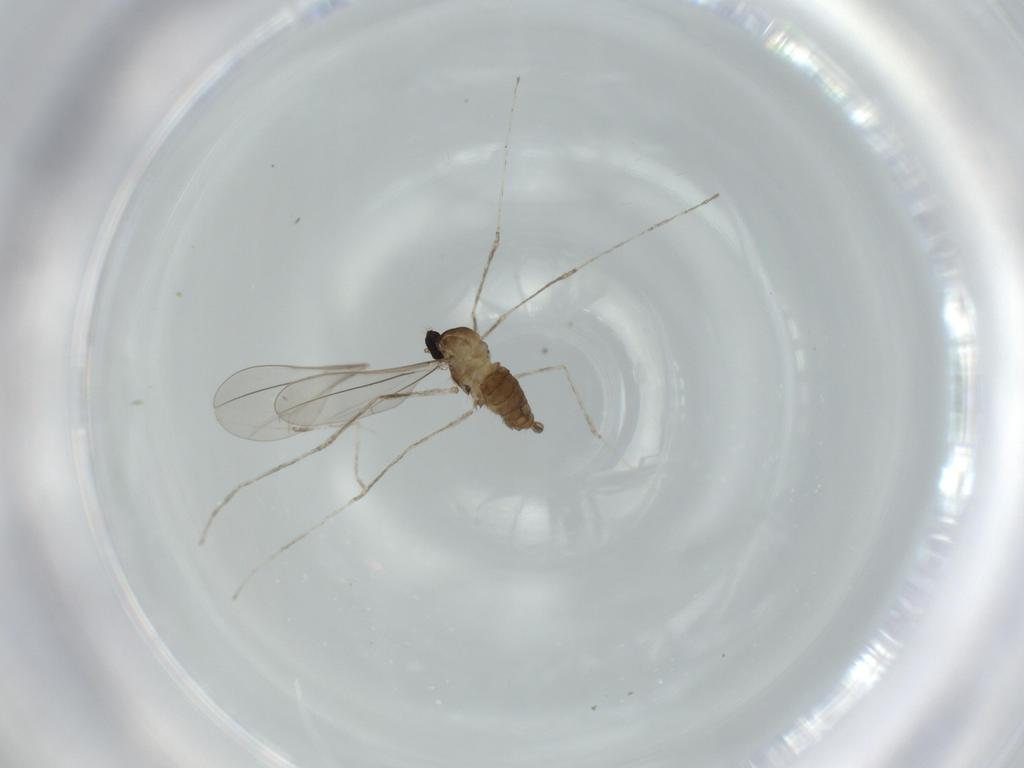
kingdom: Animalia
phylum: Arthropoda
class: Insecta
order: Diptera
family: Cecidomyiidae
